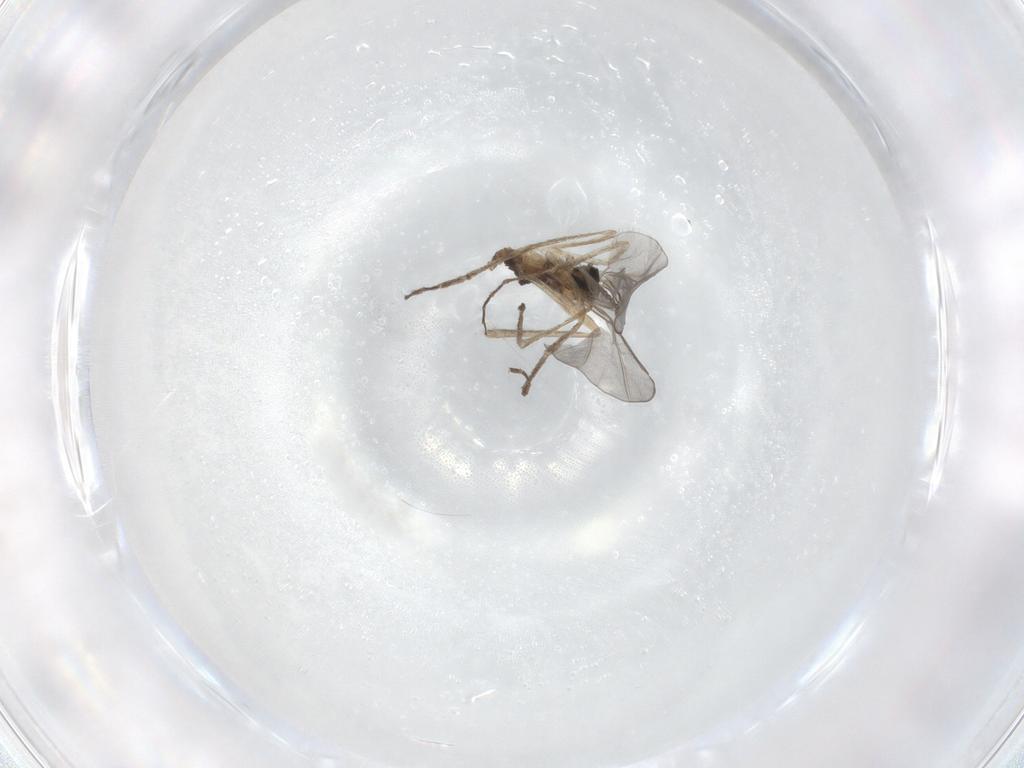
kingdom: Animalia
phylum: Arthropoda
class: Insecta
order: Diptera
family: Cecidomyiidae
